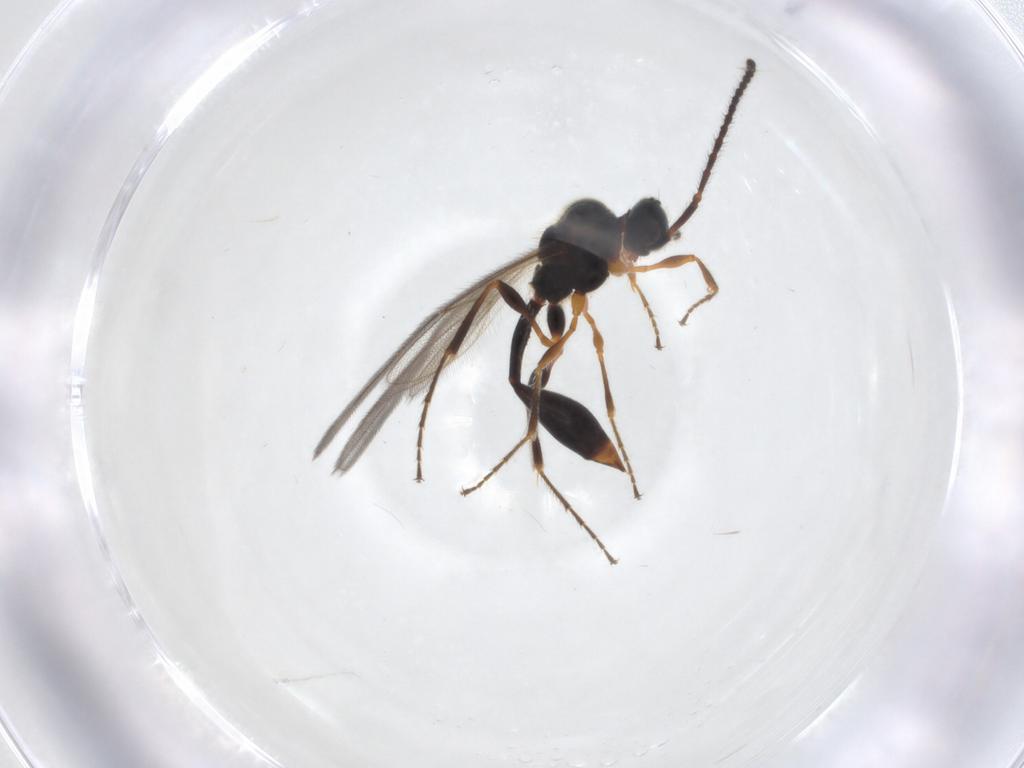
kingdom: Animalia
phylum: Arthropoda
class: Insecta
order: Hymenoptera
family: Diapriidae
